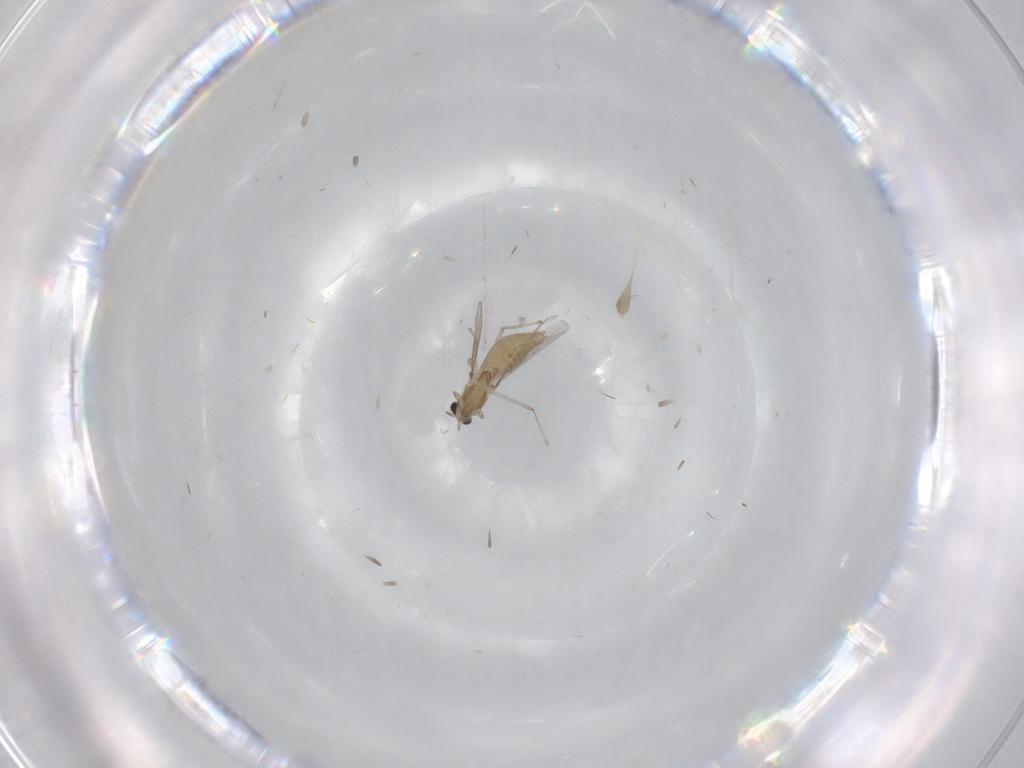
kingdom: Animalia
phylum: Arthropoda
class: Insecta
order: Diptera
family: Chironomidae
